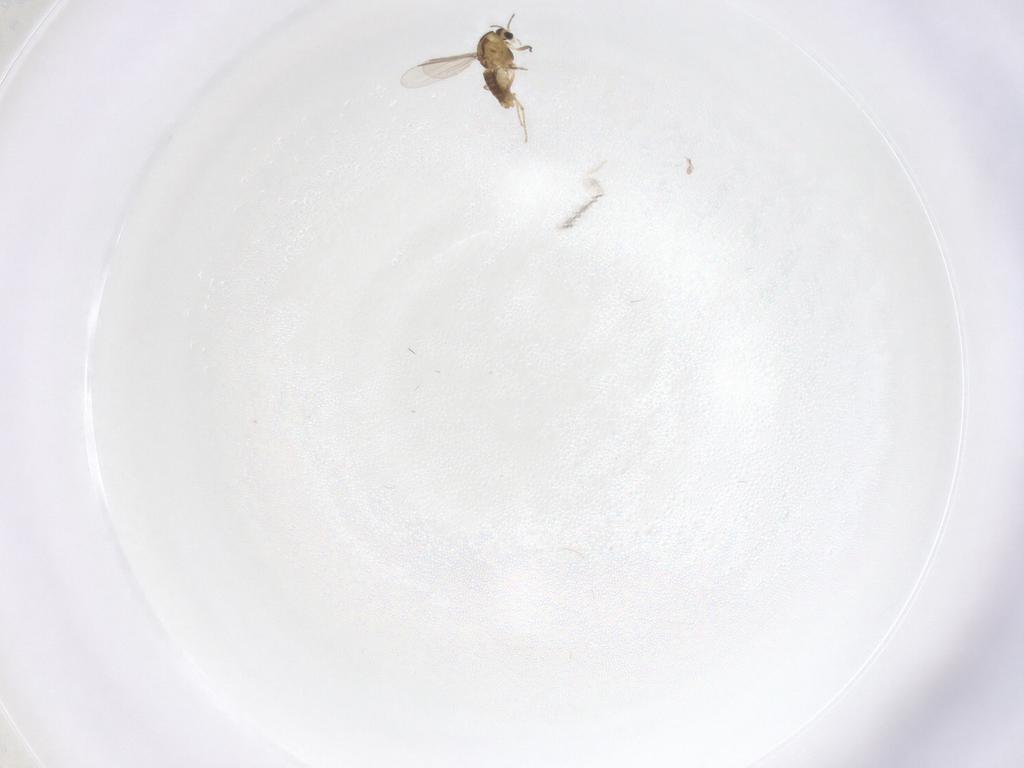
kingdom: Animalia
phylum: Arthropoda
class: Insecta
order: Diptera
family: Chironomidae
